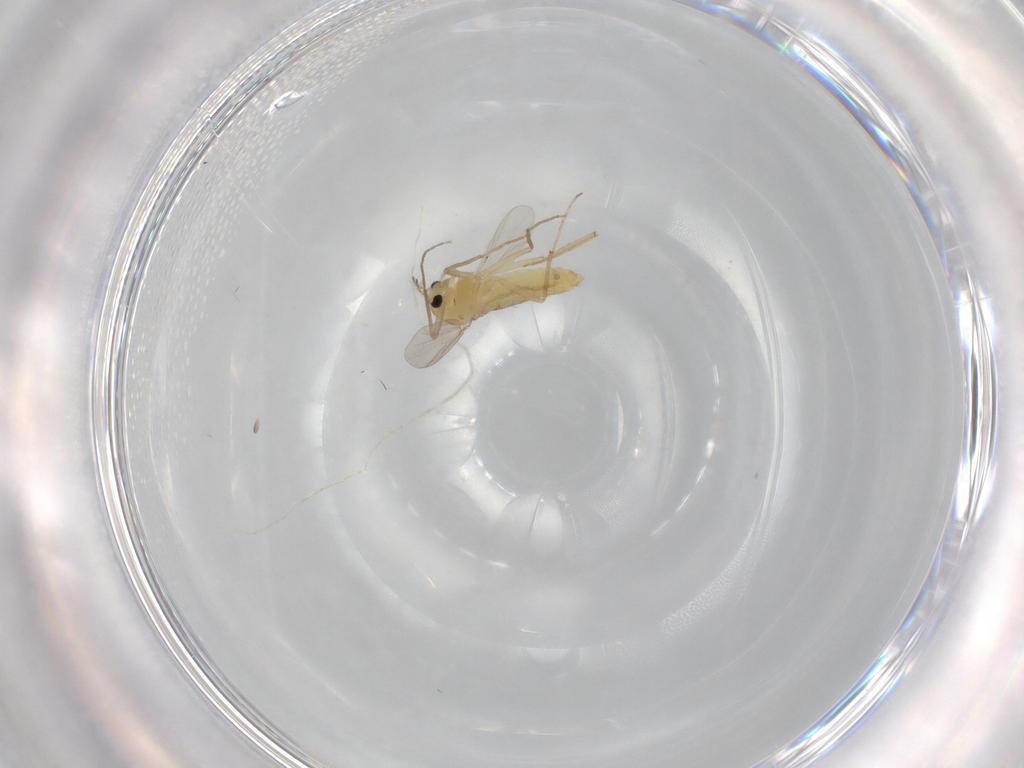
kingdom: Animalia
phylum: Arthropoda
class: Insecta
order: Diptera
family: Chironomidae
